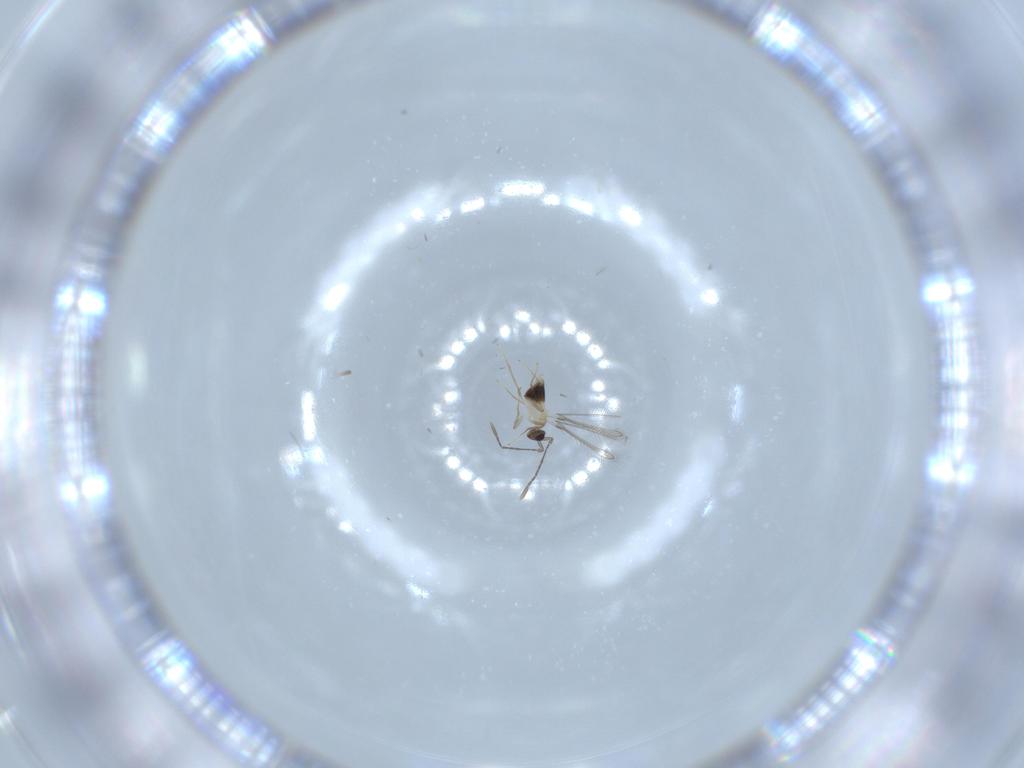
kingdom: Animalia
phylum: Arthropoda
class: Insecta
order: Hymenoptera
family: Mymaridae
